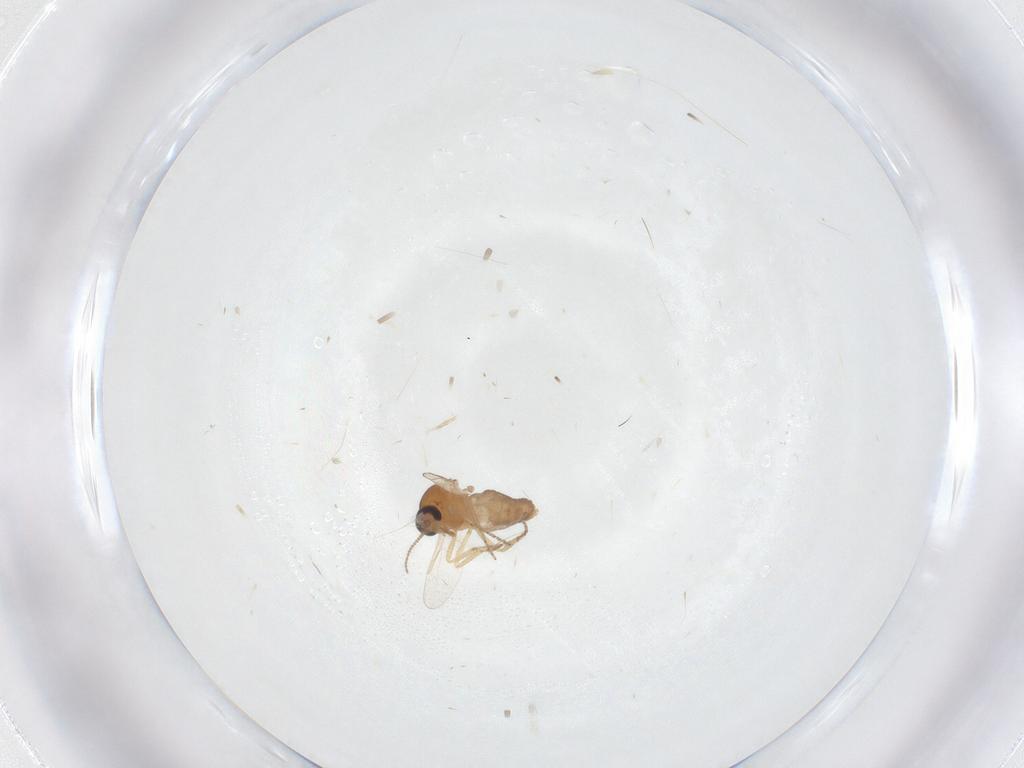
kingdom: Animalia
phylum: Arthropoda
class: Insecta
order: Diptera
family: Ceratopogonidae
